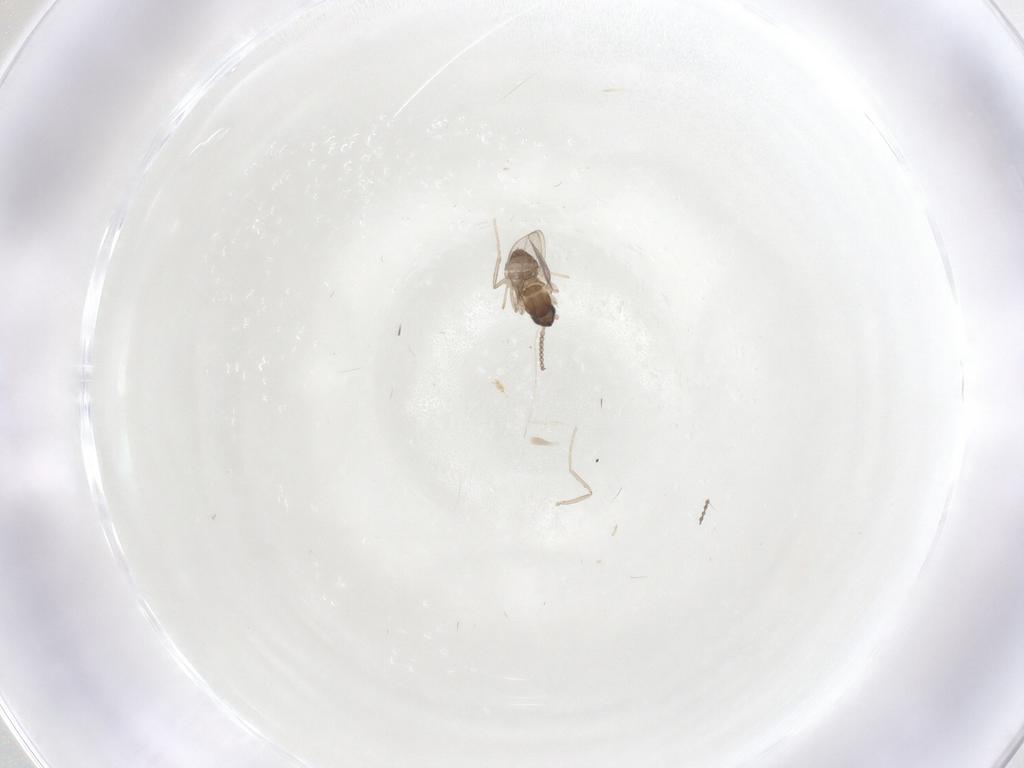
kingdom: Animalia
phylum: Arthropoda
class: Insecta
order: Diptera
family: Cecidomyiidae
